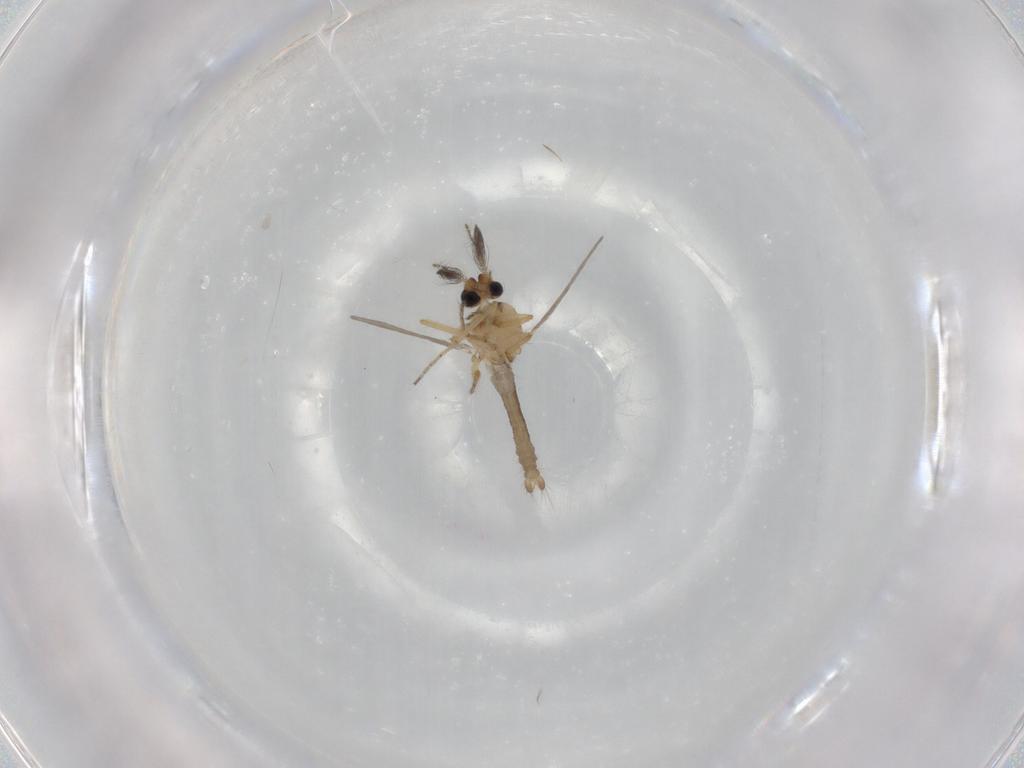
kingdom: Animalia
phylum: Arthropoda
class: Insecta
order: Diptera
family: Ceratopogonidae
